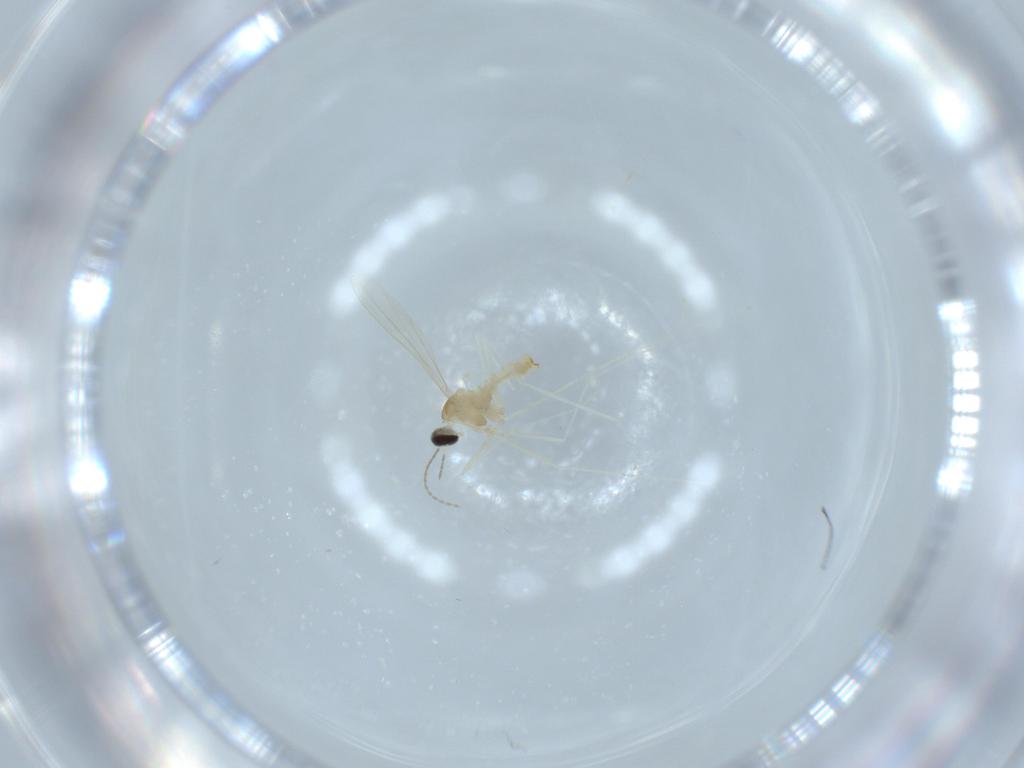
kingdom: Animalia
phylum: Arthropoda
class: Insecta
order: Diptera
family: Cecidomyiidae
